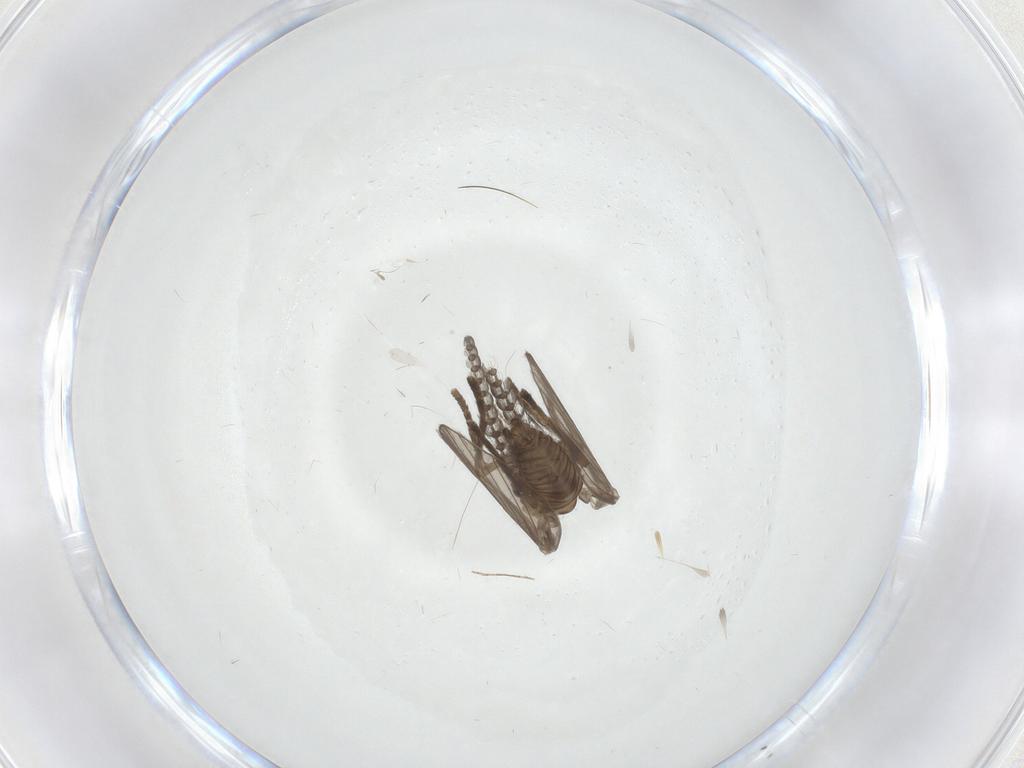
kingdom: Animalia
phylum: Arthropoda
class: Insecta
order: Diptera
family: Psychodidae
